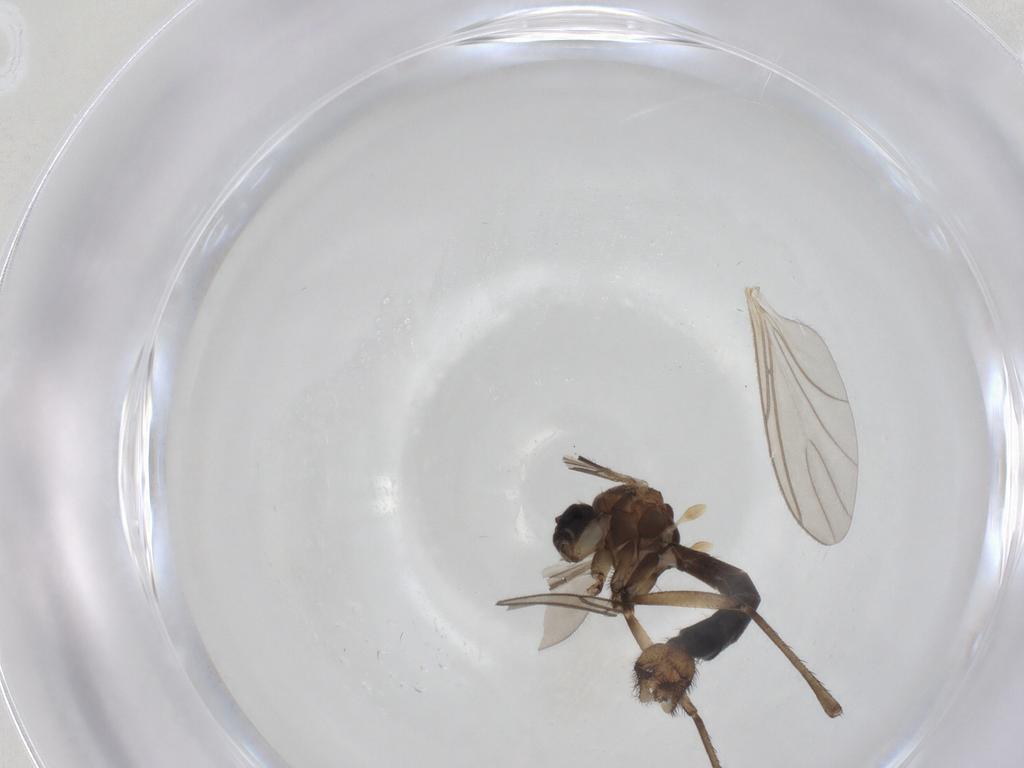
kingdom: Animalia
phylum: Arthropoda
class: Insecta
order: Diptera
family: Mycetophilidae
